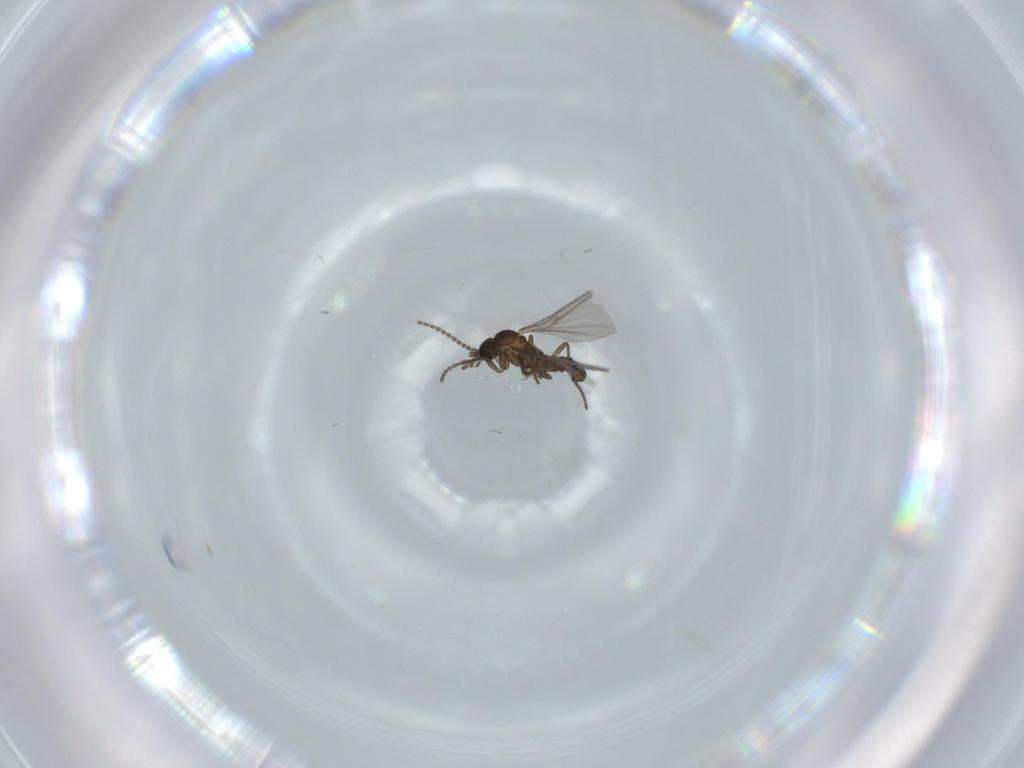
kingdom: Animalia
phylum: Arthropoda
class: Insecta
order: Diptera
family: Sciaridae
